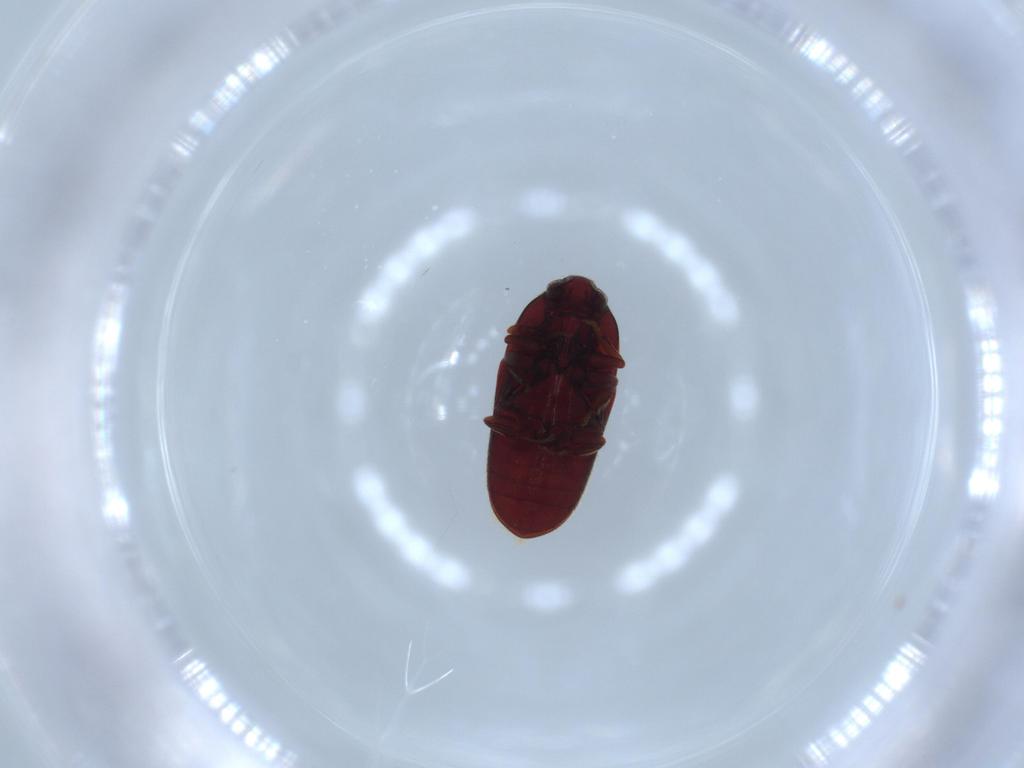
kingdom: Animalia
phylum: Arthropoda
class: Insecta
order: Coleoptera
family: Throscidae
